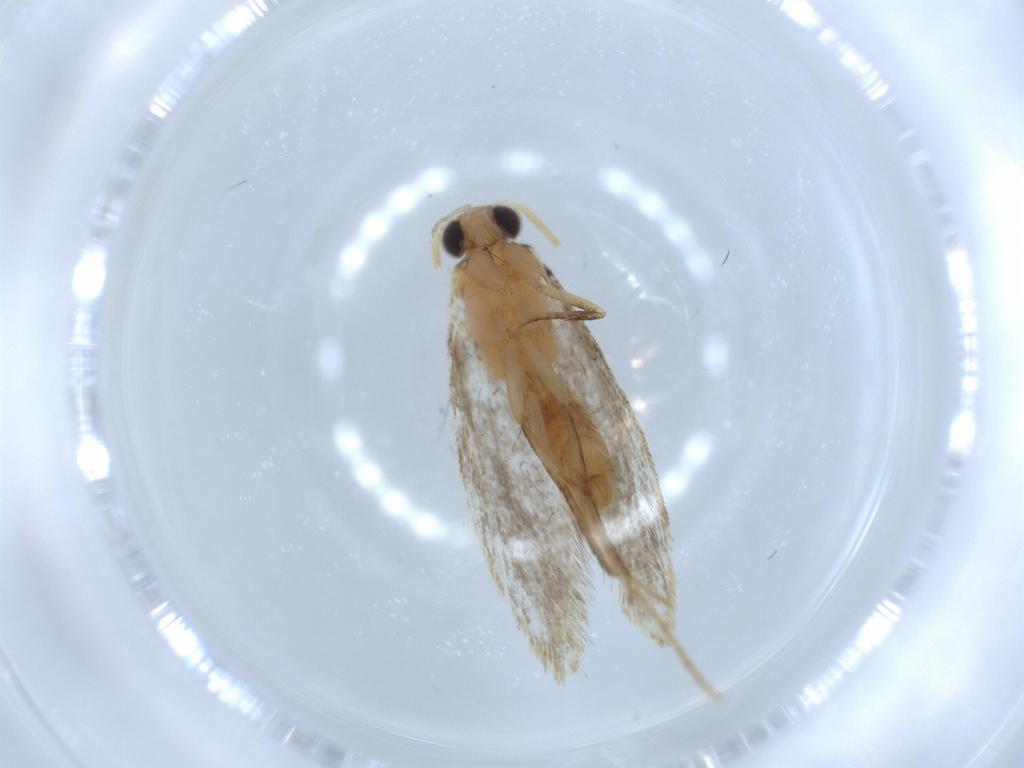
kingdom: Animalia
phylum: Arthropoda
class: Insecta
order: Lepidoptera
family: Tineidae
